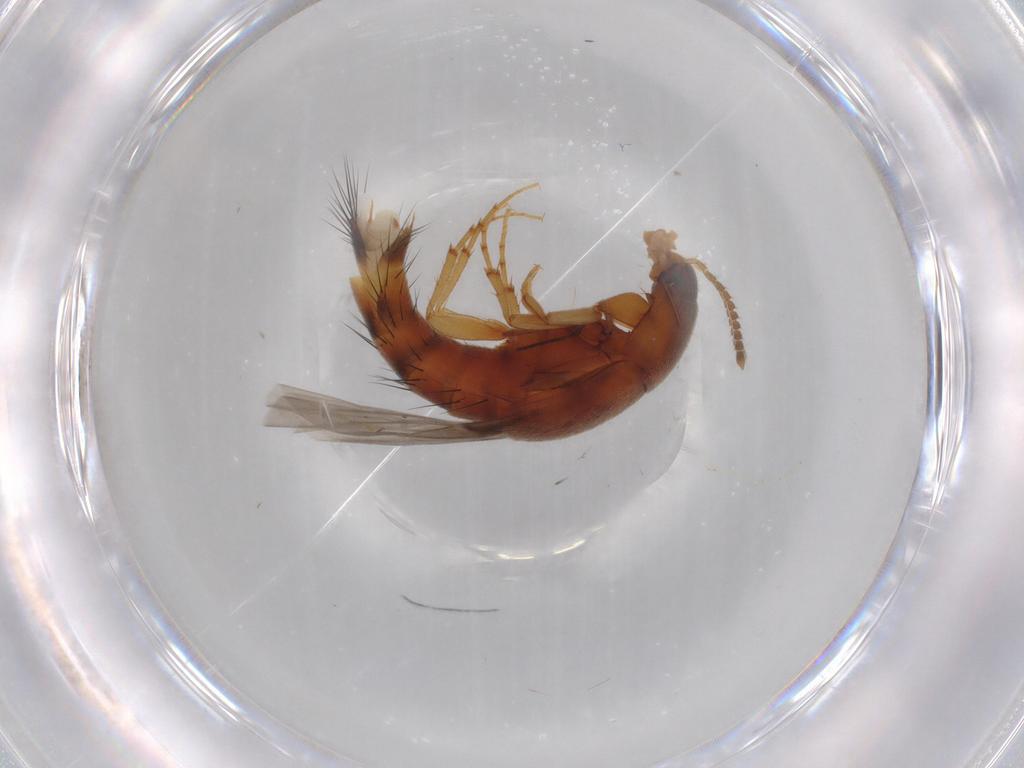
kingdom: Animalia
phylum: Arthropoda
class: Insecta
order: Coleoptera
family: Staphylinidae
